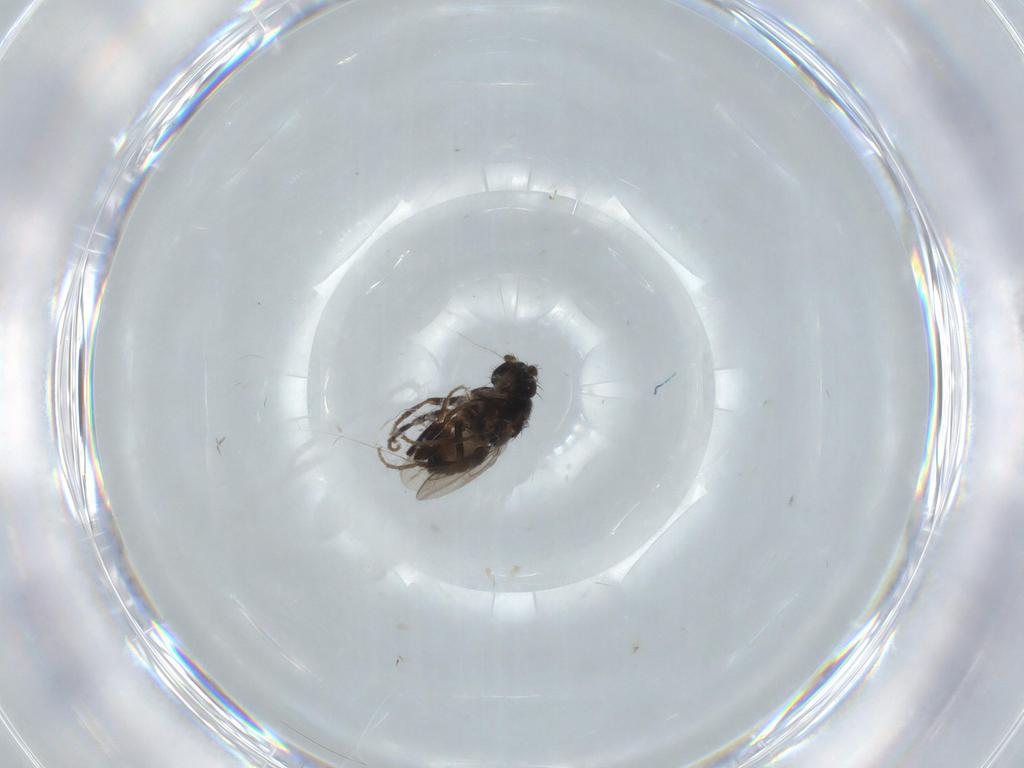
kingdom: Animalia
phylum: Arthropoda
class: Insecta
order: Diptera
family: Sphaeroceridae
